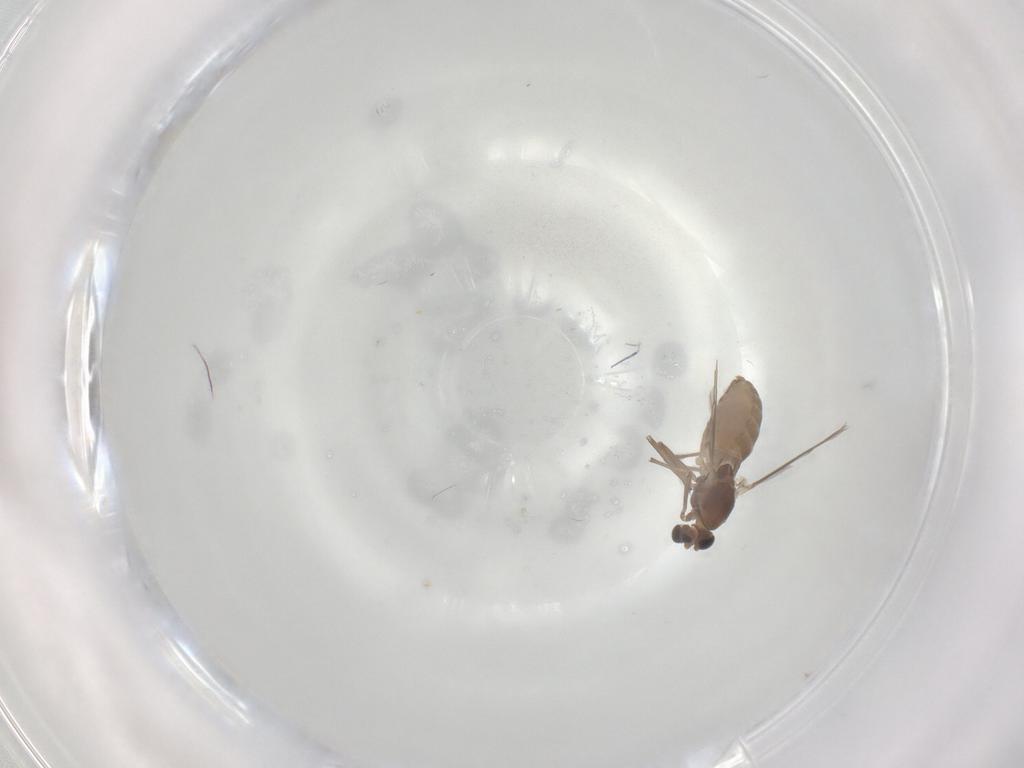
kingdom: Animalia
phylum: Arthropoda
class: Insecta
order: Diptera
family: Chironomidae
